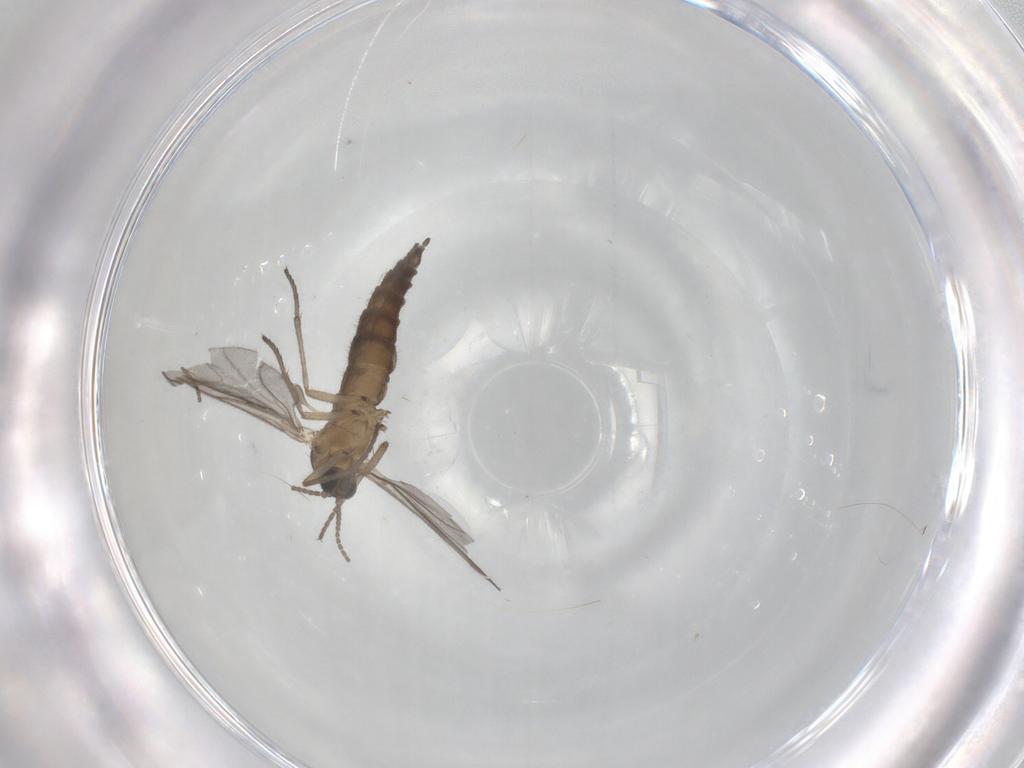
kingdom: Animalia
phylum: Arthropoda
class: Insecta
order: Diptera
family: Sciaridae
